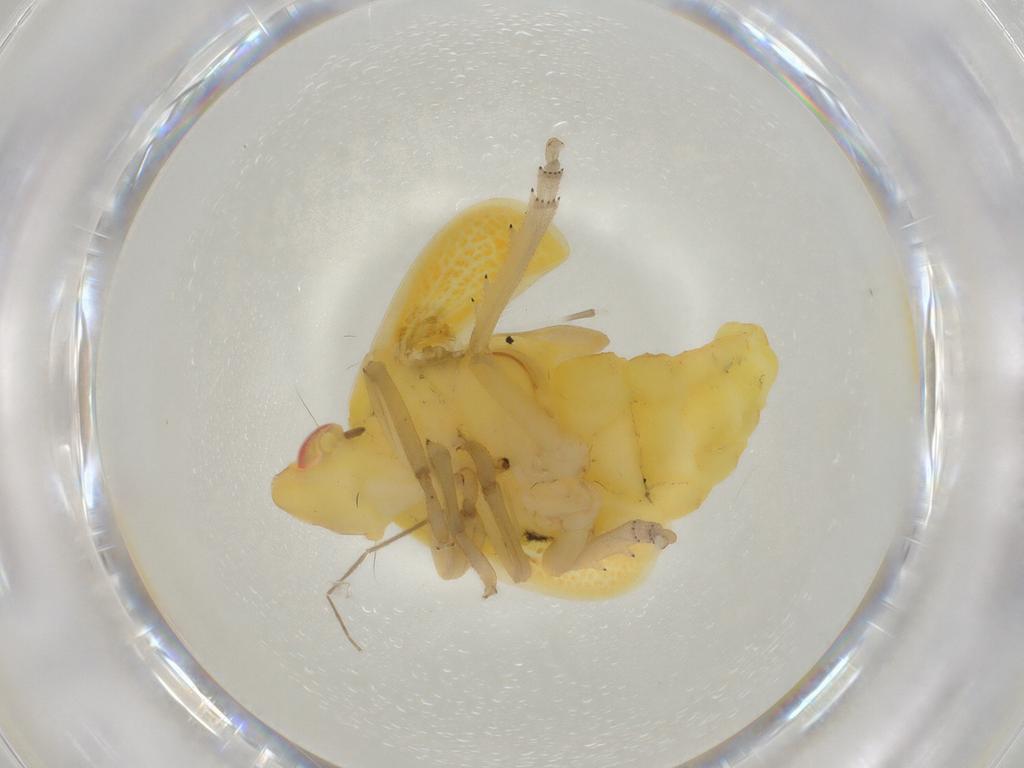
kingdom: Animalia
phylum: Arthropoda
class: Insecta
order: Hemiptera
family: Tropiduchidae
